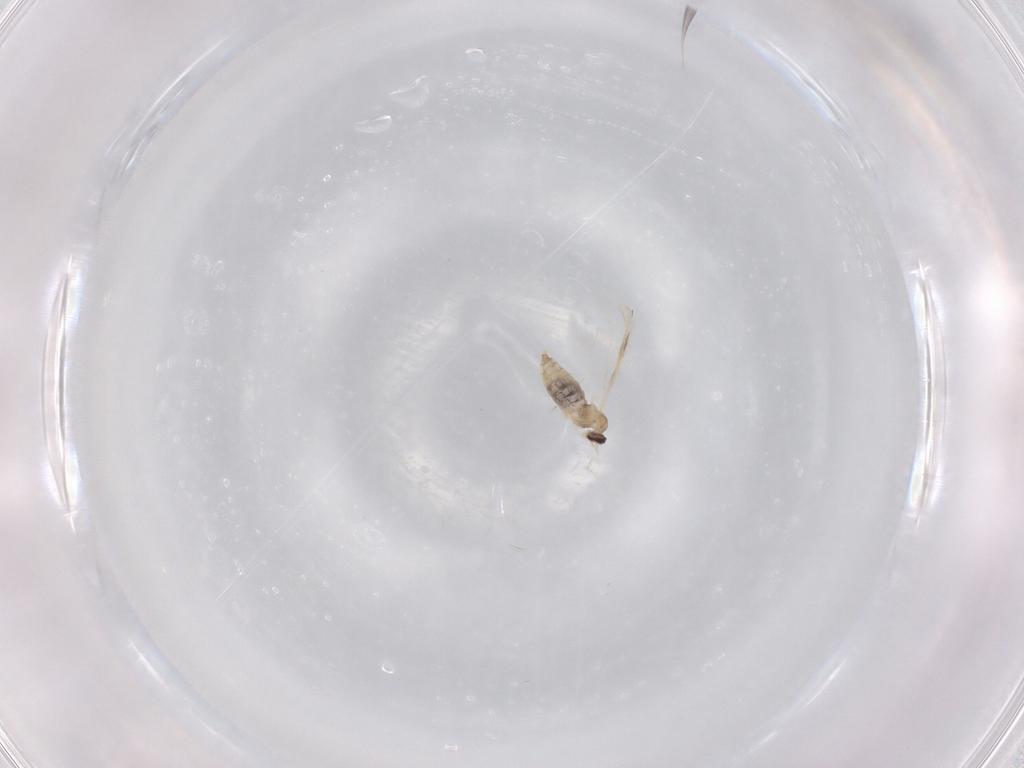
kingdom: Animalia
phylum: Arthropoda
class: Insecta
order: Diptera
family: Cecidomyiidae
